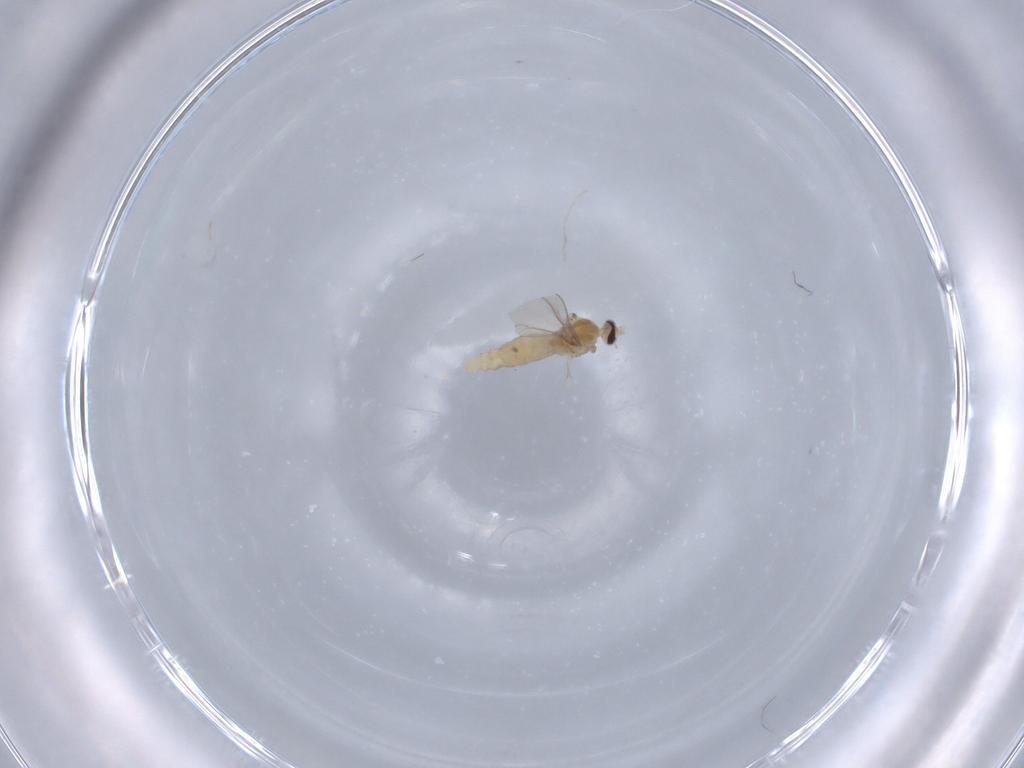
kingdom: Animalia
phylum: Arthropoda
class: Insecta
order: Diptera
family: Cecidomyiidae
